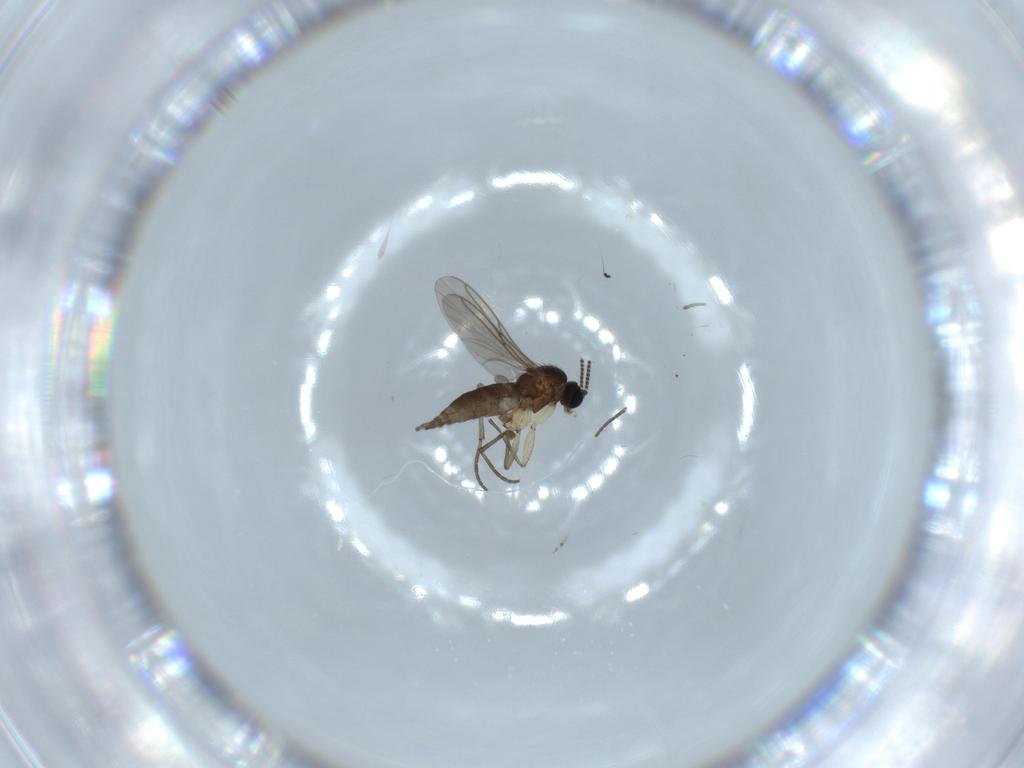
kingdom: Animalia
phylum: Arthropoda
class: Insecta
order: Diptera
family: Sciaridae
